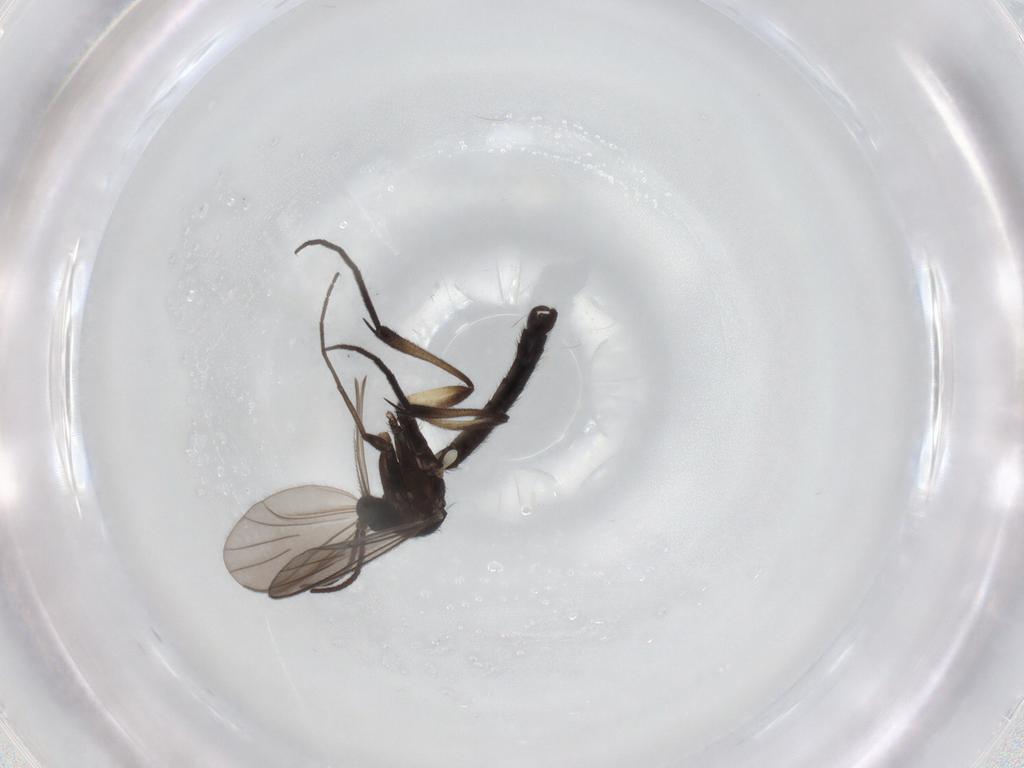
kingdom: Animalia
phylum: Arthropoda
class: Insecta
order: Diptera
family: Keroplatidae
